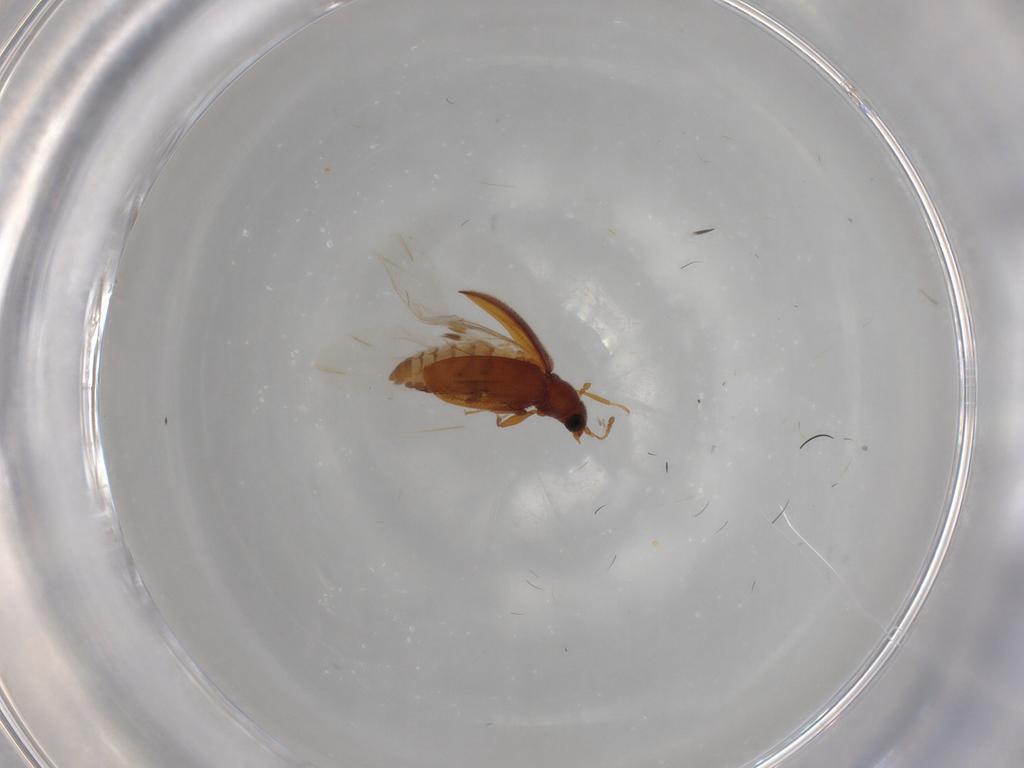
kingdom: Animalia
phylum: Arthropoda
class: Insecta
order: Coleoptera
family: Latridiidae
